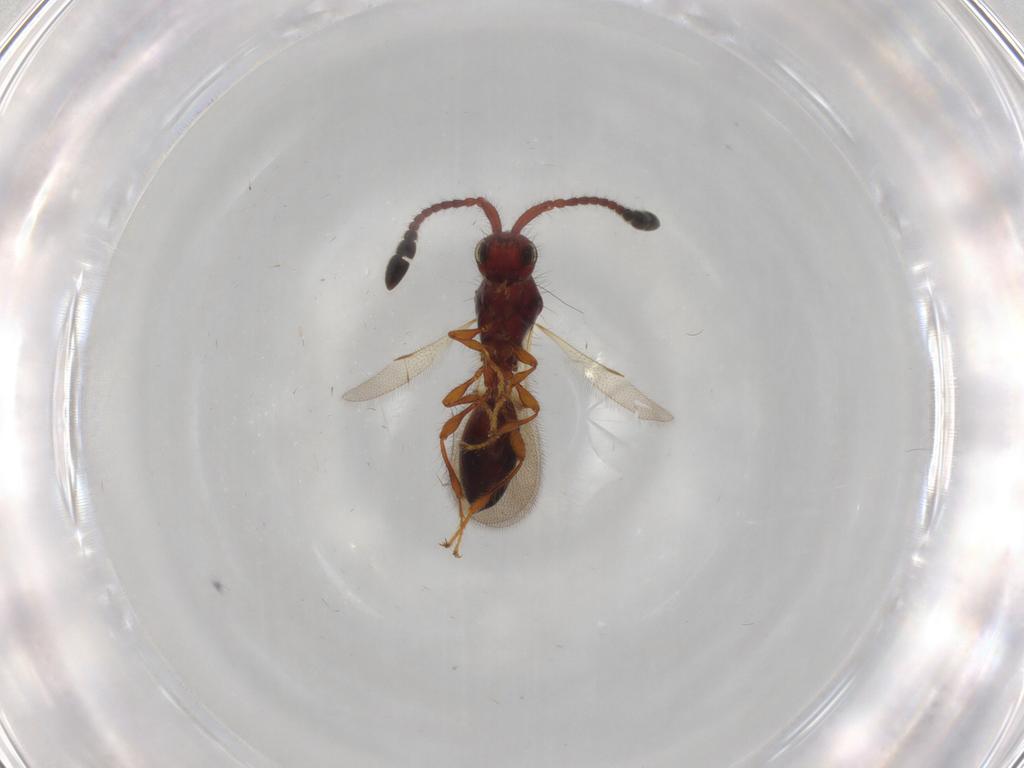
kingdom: Animalia
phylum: Arthropoda
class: Insecta
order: Hymenoptera
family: Diapriidae
